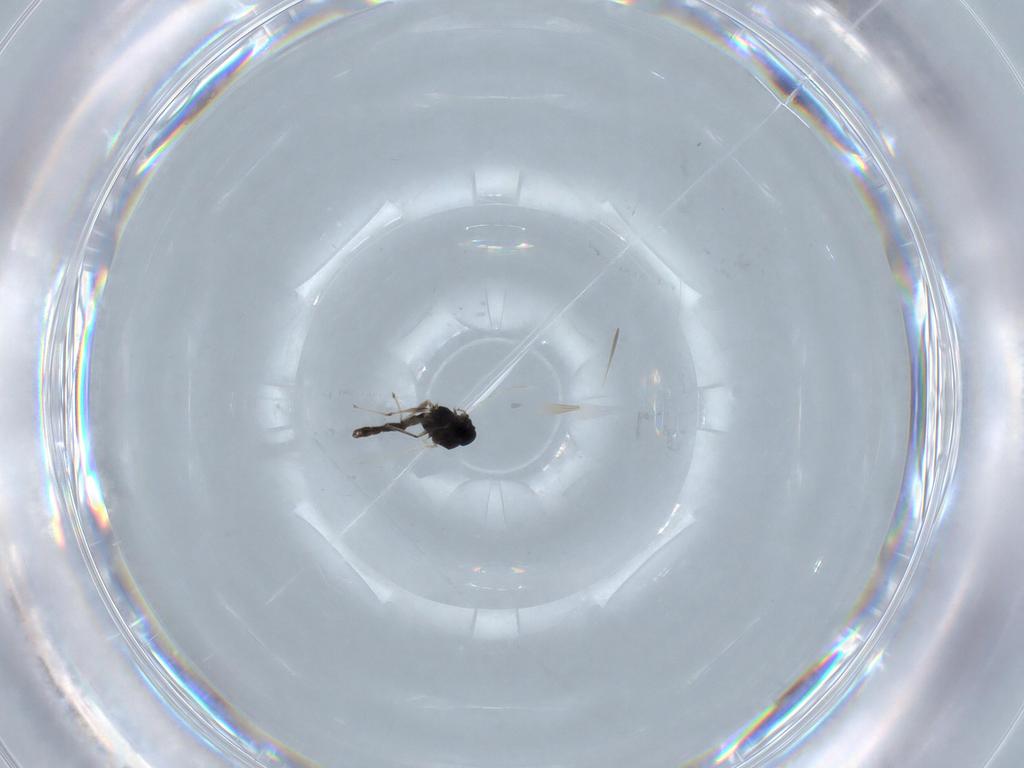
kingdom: Animalia
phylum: Arthropoda
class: Insecta
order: Diptera
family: Chironomidae
